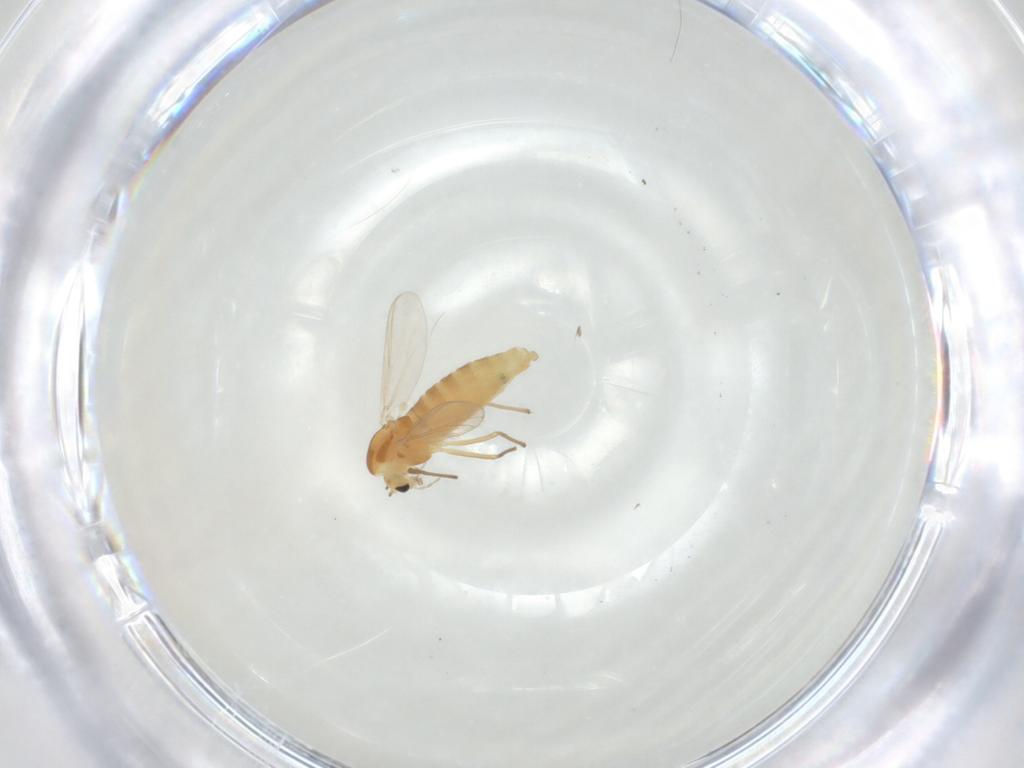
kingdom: Animalia
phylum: Arthropoda
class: Insecta
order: Diptera
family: Chironomidae
